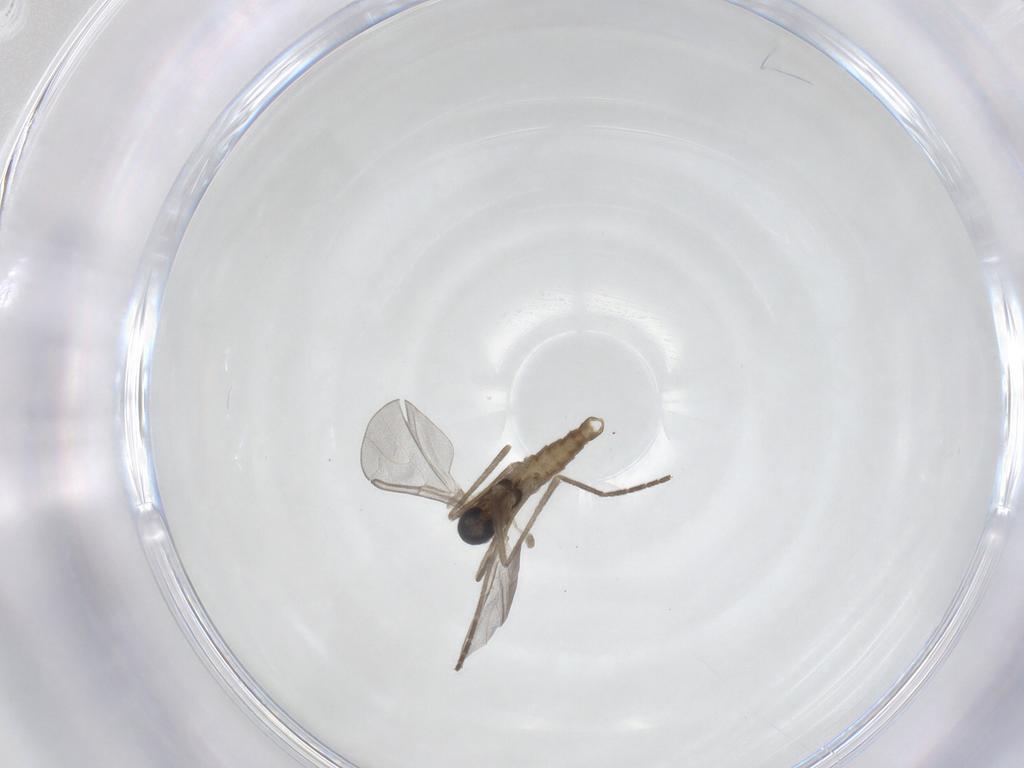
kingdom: Animalia
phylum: Arthropoda
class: Insecta
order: Diptera
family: Cecidomyiidae
